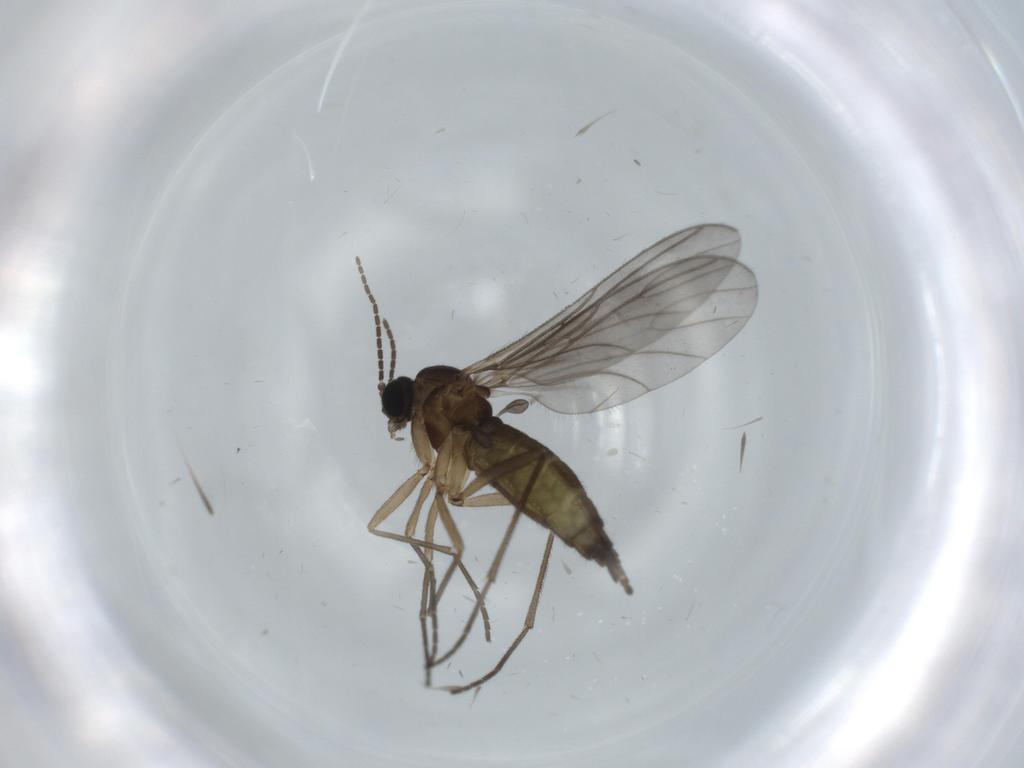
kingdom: Animalia
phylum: Arthropoda
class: Insecta
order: Diptera
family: Sciaridae
